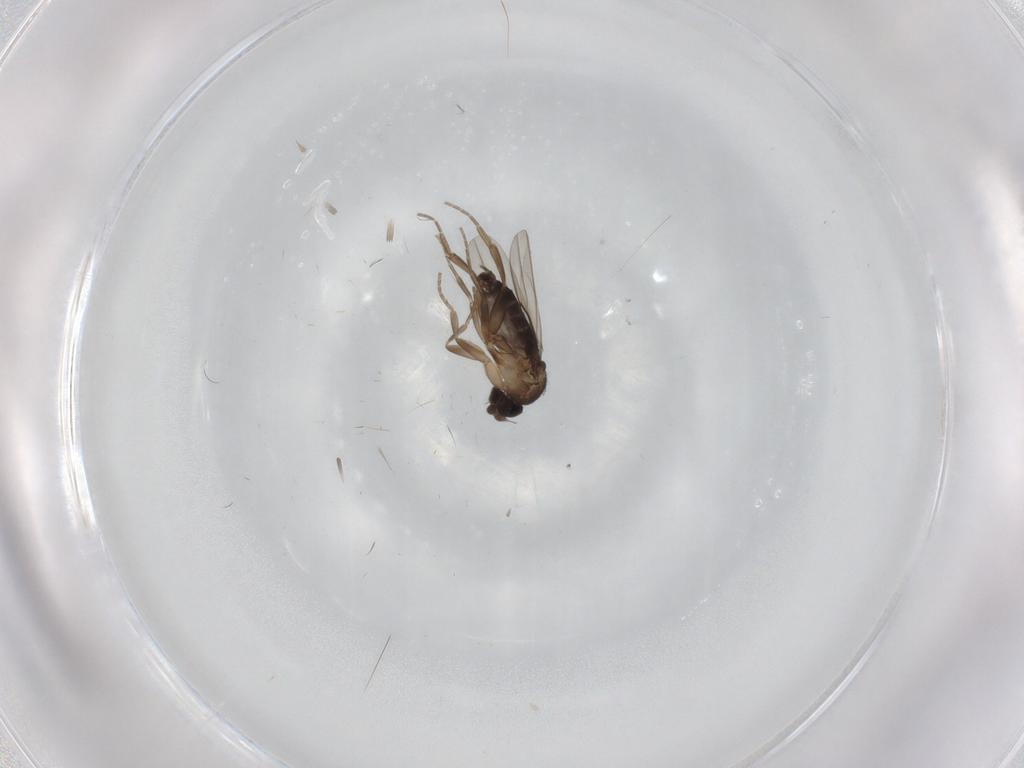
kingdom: Animalia
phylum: Arthropoda
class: Insecta
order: Diptera
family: Phoridae
